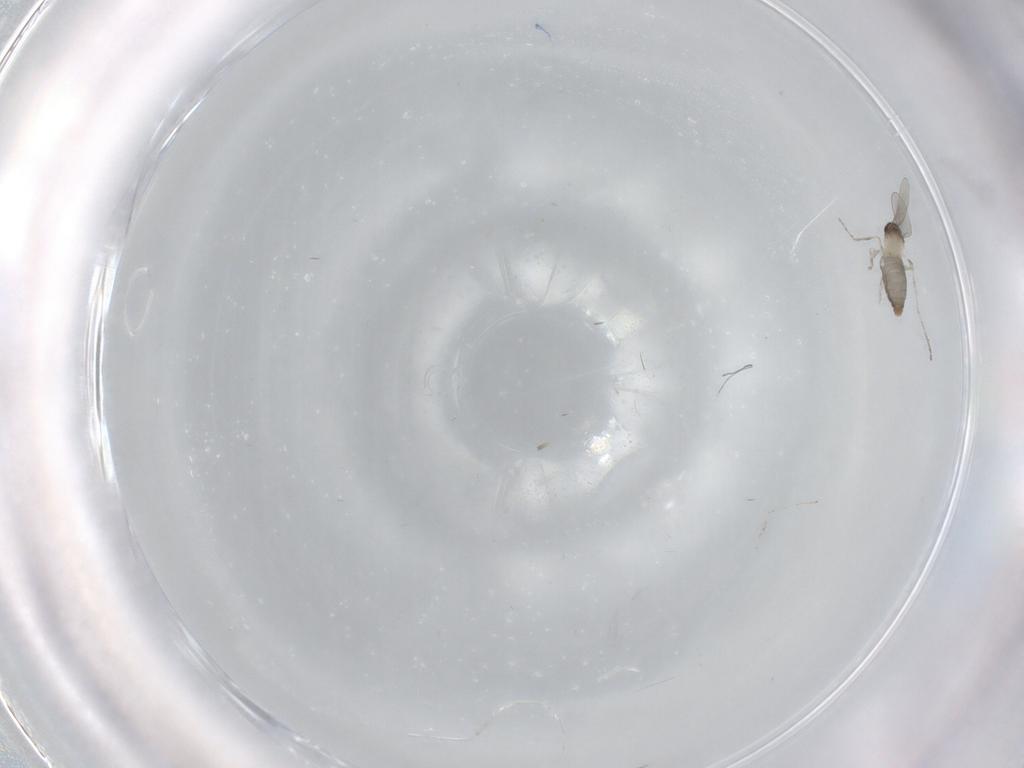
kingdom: Animalia
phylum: Arthropoda
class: Insecta
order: Diptera
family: Cecidomyiidae
